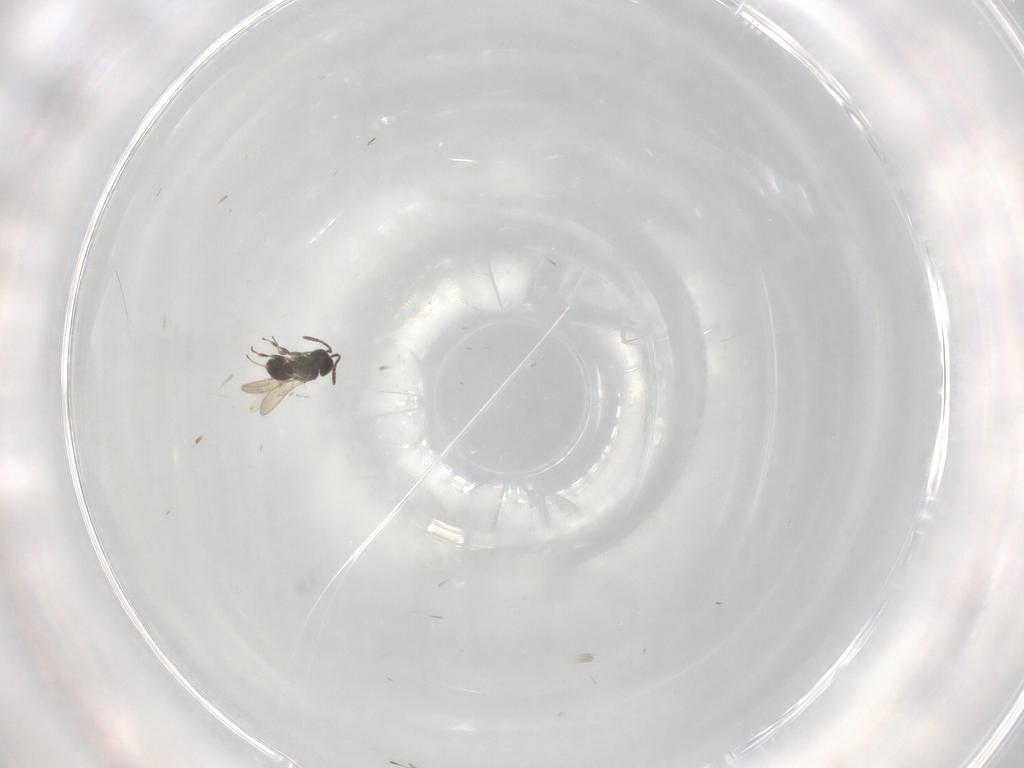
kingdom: Animalia
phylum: Arthropoda
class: Insecta
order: Hymenoptera
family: Scelionidae
